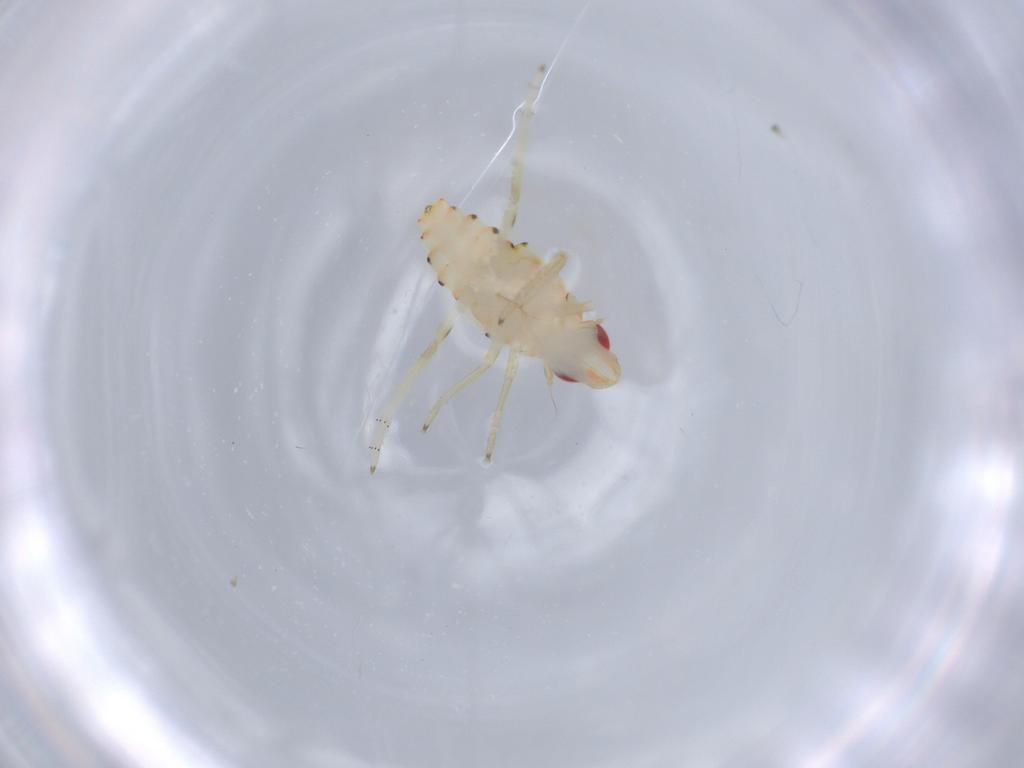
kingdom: Animalia
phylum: Arthropoda
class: Insecta
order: Hemiptera
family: Tropiduchidae
